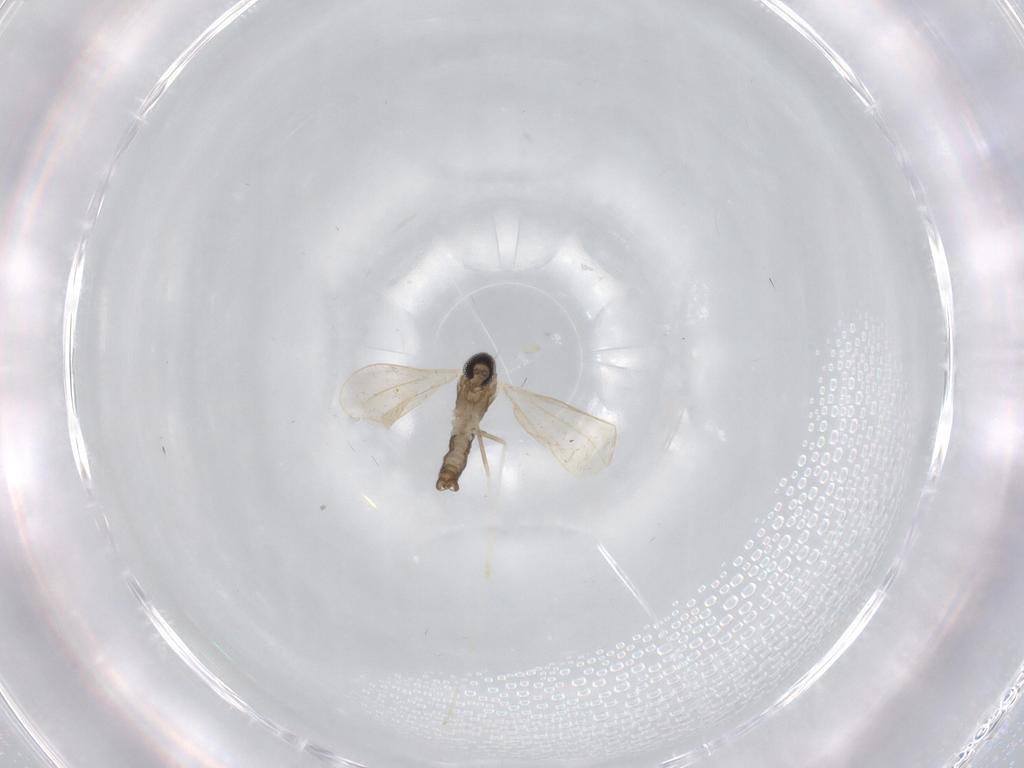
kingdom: Animalia
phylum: Arthropoda
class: Insecta
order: Diptera
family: Cecidomyiidae
